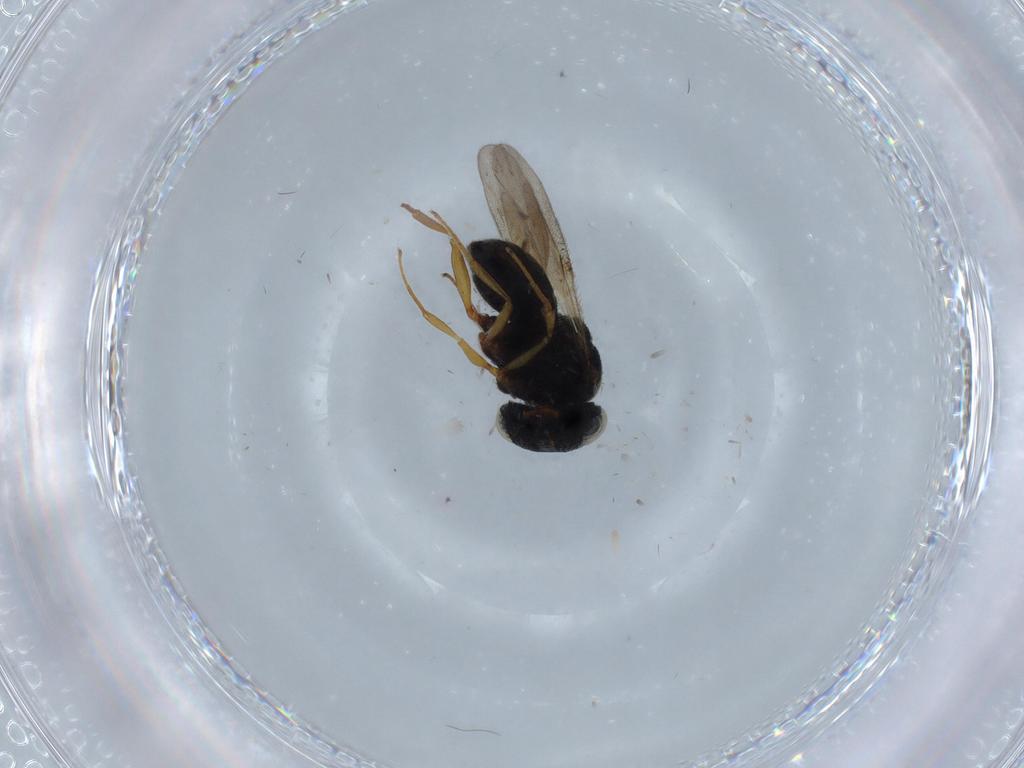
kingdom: Animalia
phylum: Arthropoda
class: Insecta
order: Hymenoptera
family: Scelionidae
